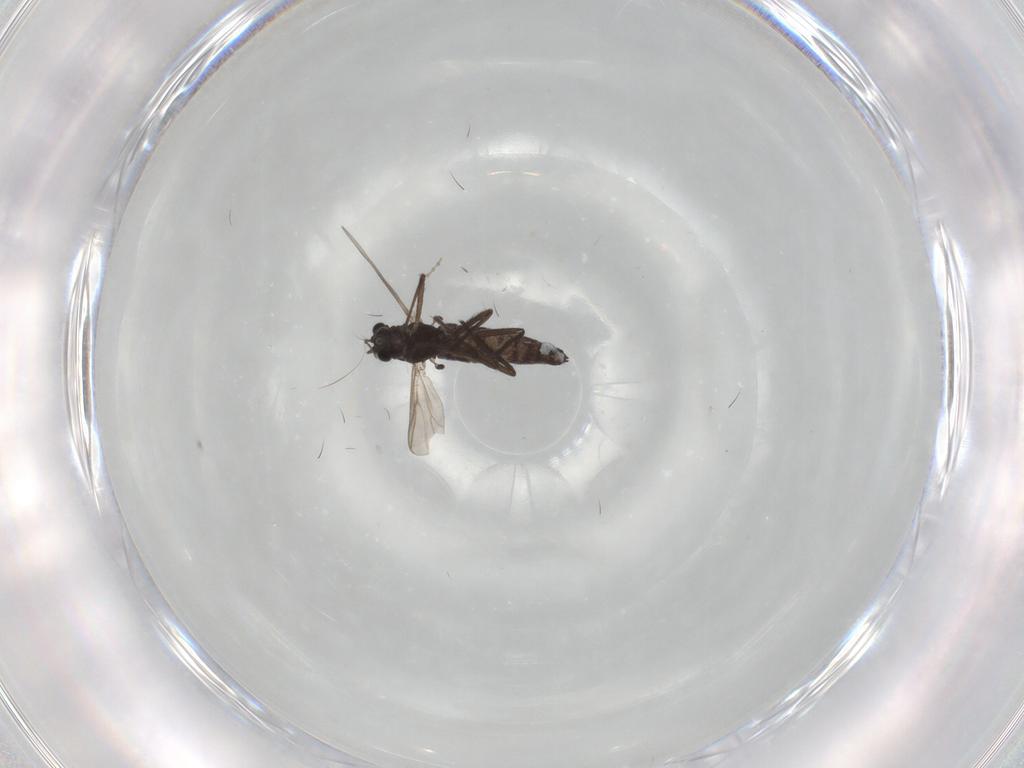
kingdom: Animalia
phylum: Arthropoda
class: Insecta
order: Diptera
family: Chironomidae
